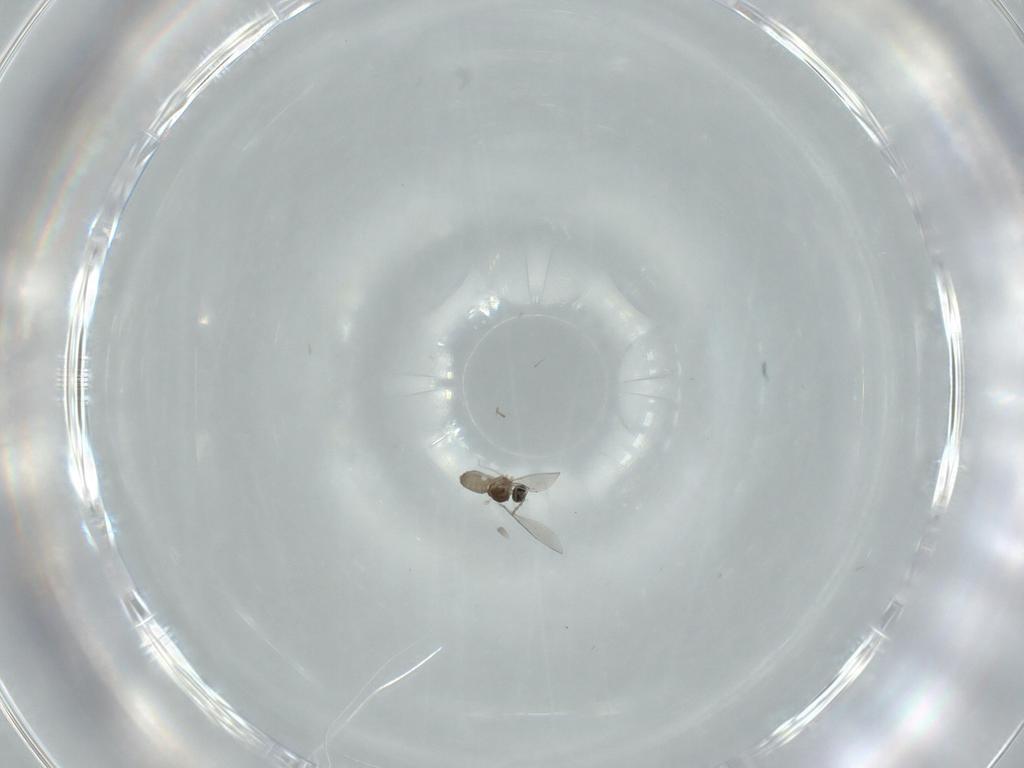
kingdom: Animalia
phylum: Arthropoda
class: Insecta
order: Diptera
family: Cecidomyiidae
